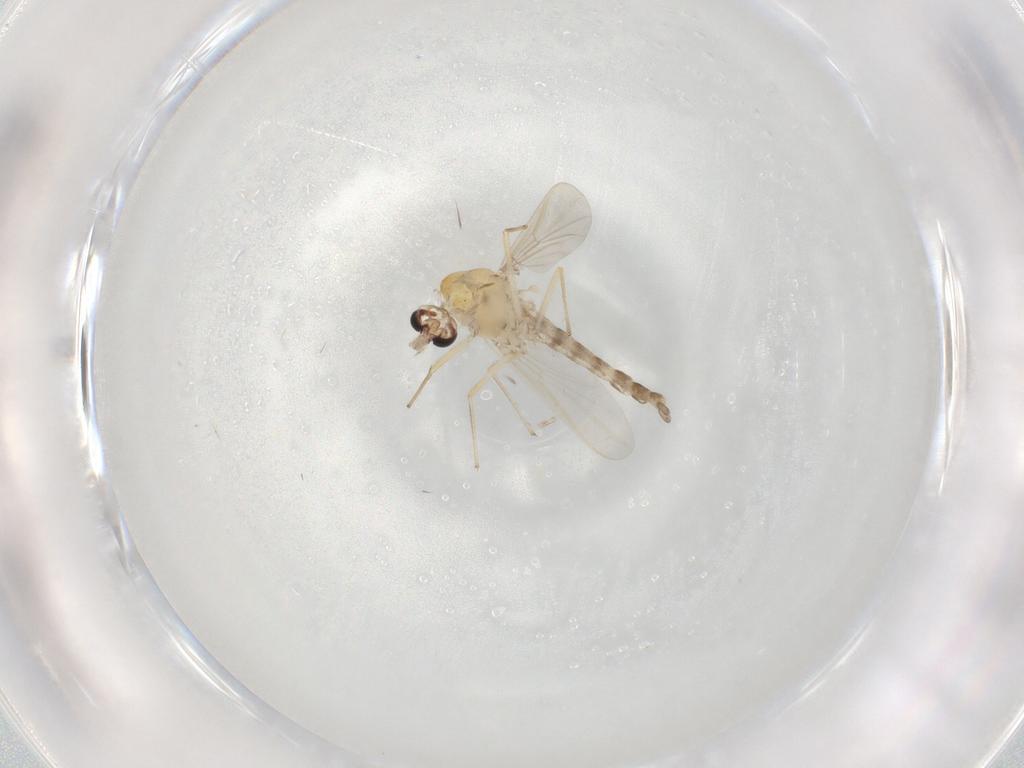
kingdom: Animalia
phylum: Arthropoda
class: Insecta
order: Diptera
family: Chironomidae
